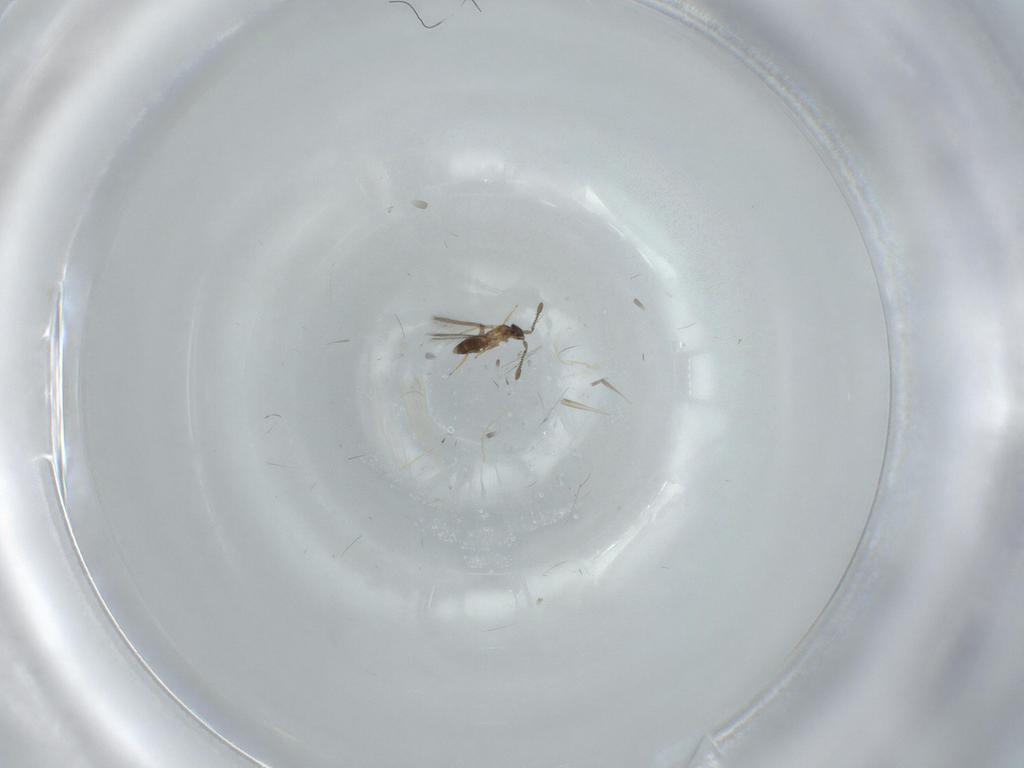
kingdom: Animalia
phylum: Arthropoda
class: Insecta
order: Hymenoptera
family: Mymaridae
